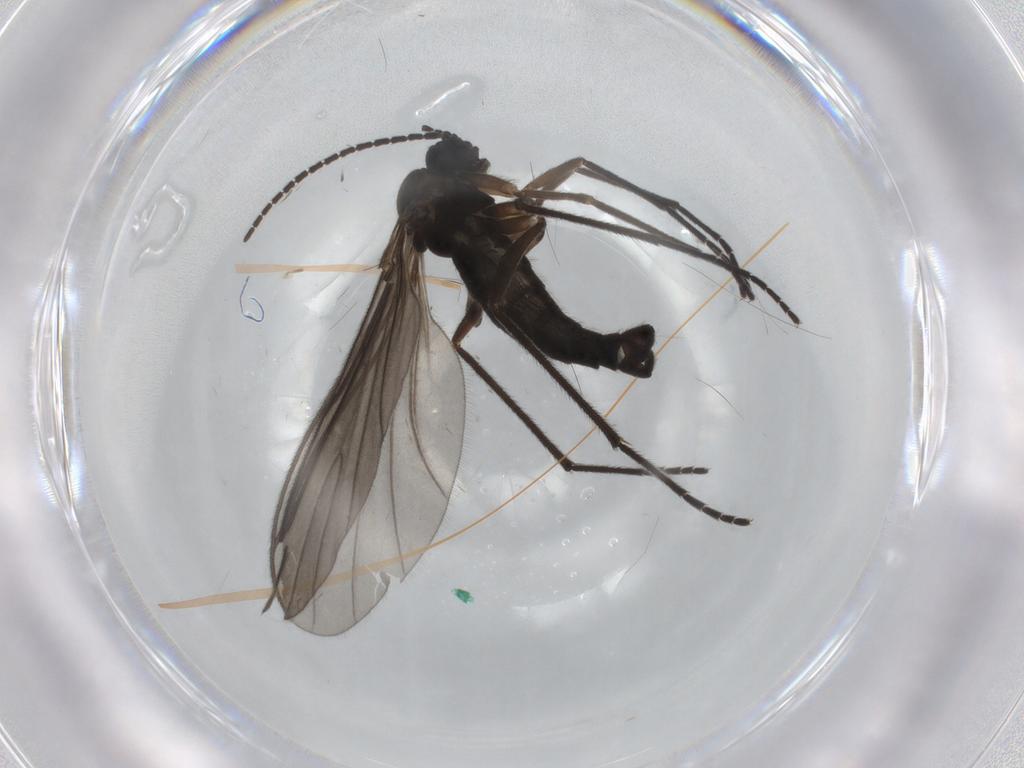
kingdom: Animalia
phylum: Arthropoda
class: Insecta
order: Diptera
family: Sciaridae
